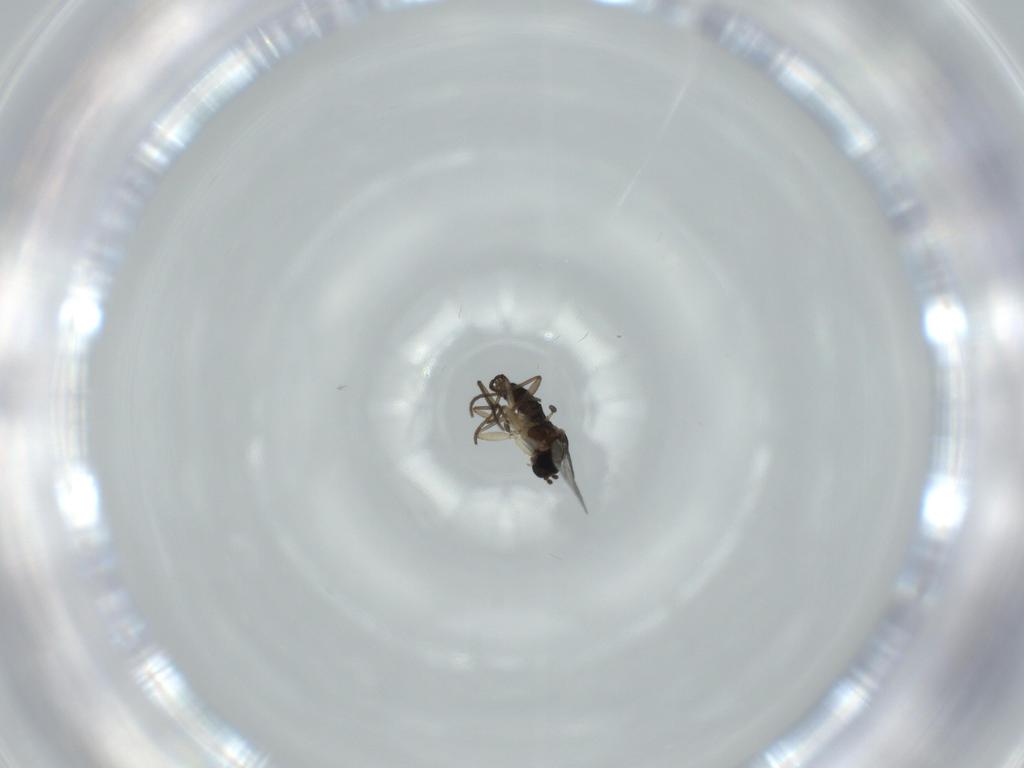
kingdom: Animalia
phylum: Arthropoda
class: Insecta
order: Diptera
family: Sciaridae
